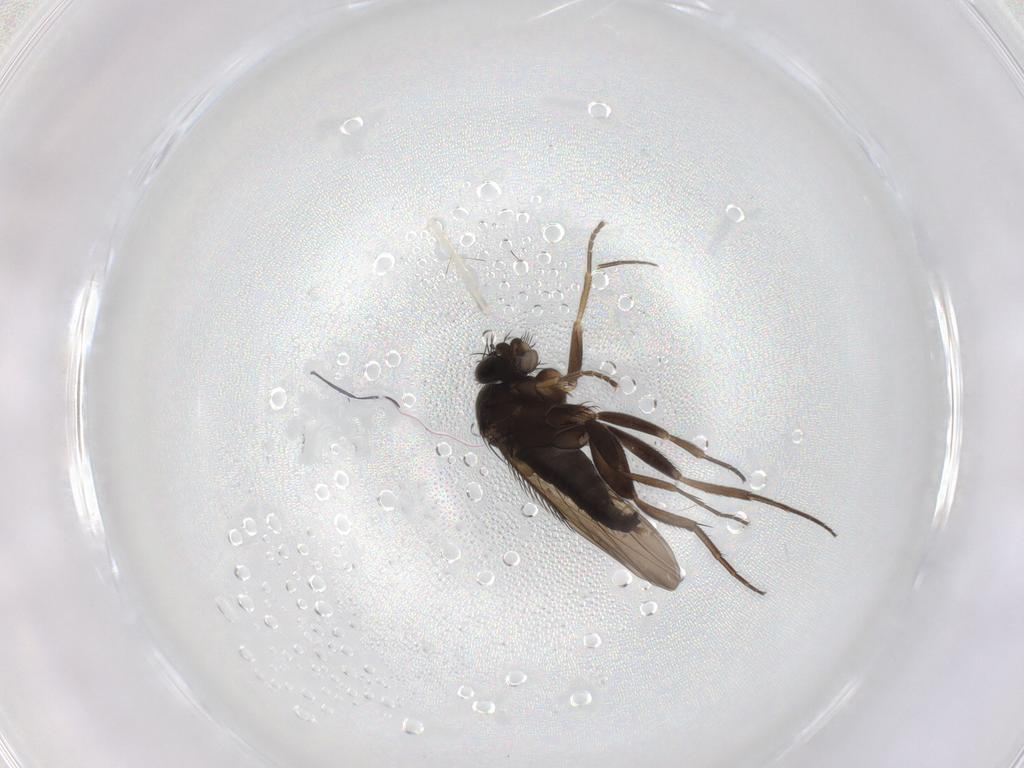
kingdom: Animalia
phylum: Arthropoda
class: Insecta
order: Diptera
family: Phoridae
